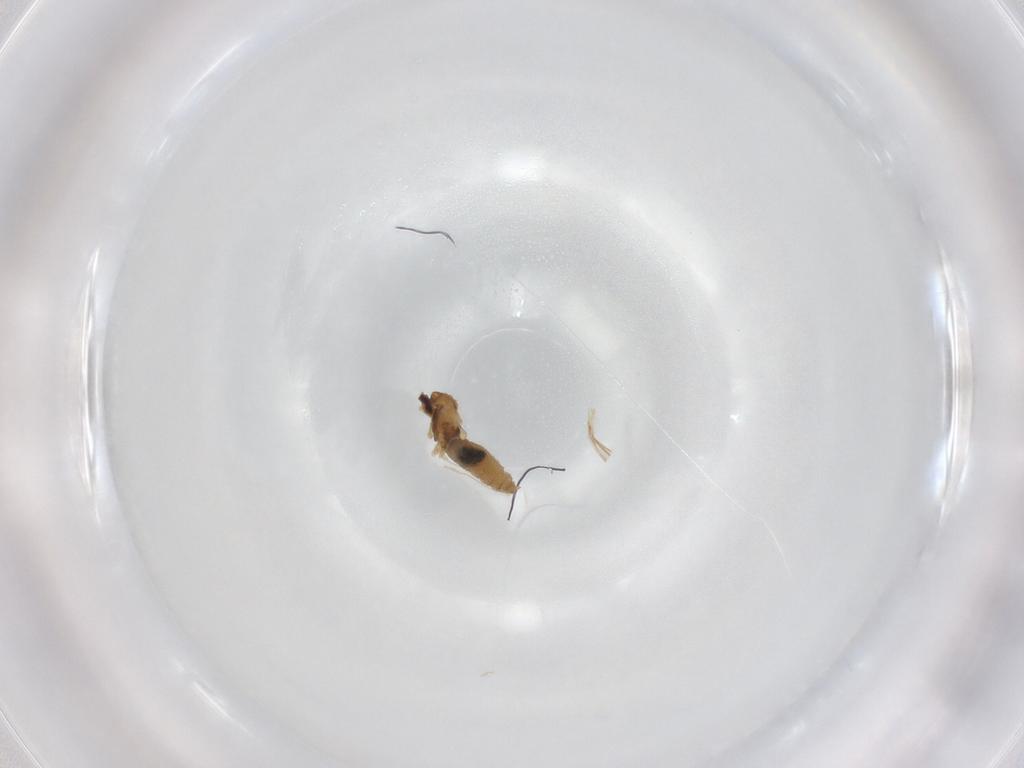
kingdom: Animalia
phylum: Arthropoda
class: Insecta
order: Diptera
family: Cecidomyiidae
